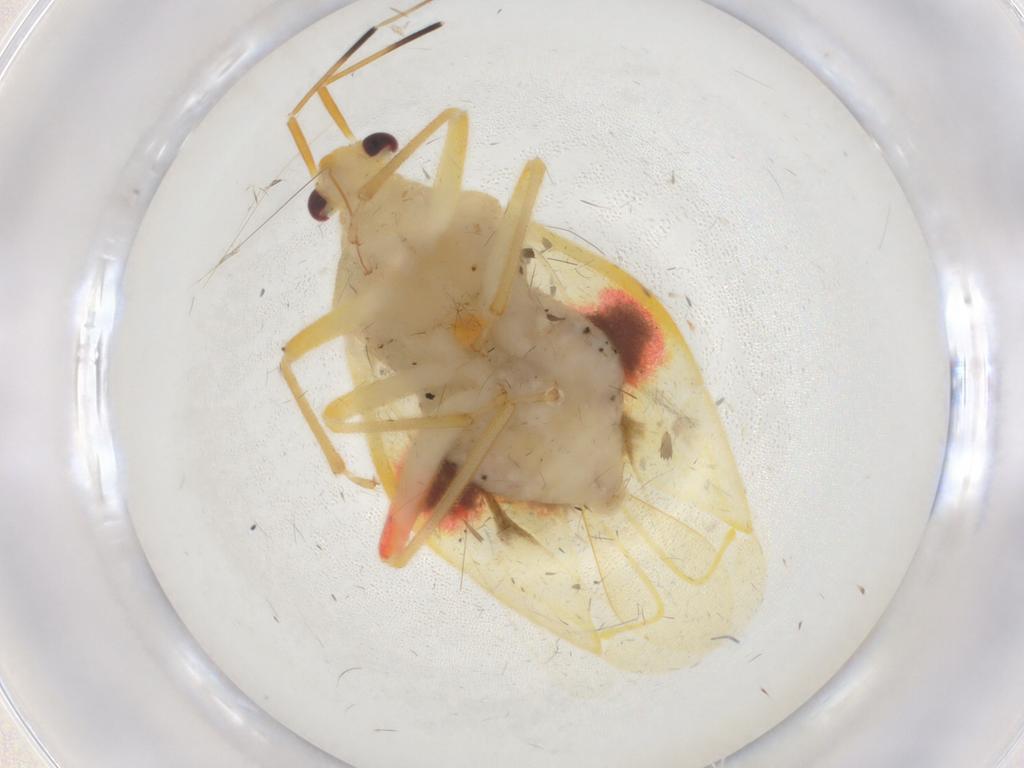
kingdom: Animalia
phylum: Arthropoda
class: Insecta
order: Hemiptera
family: Miridae
